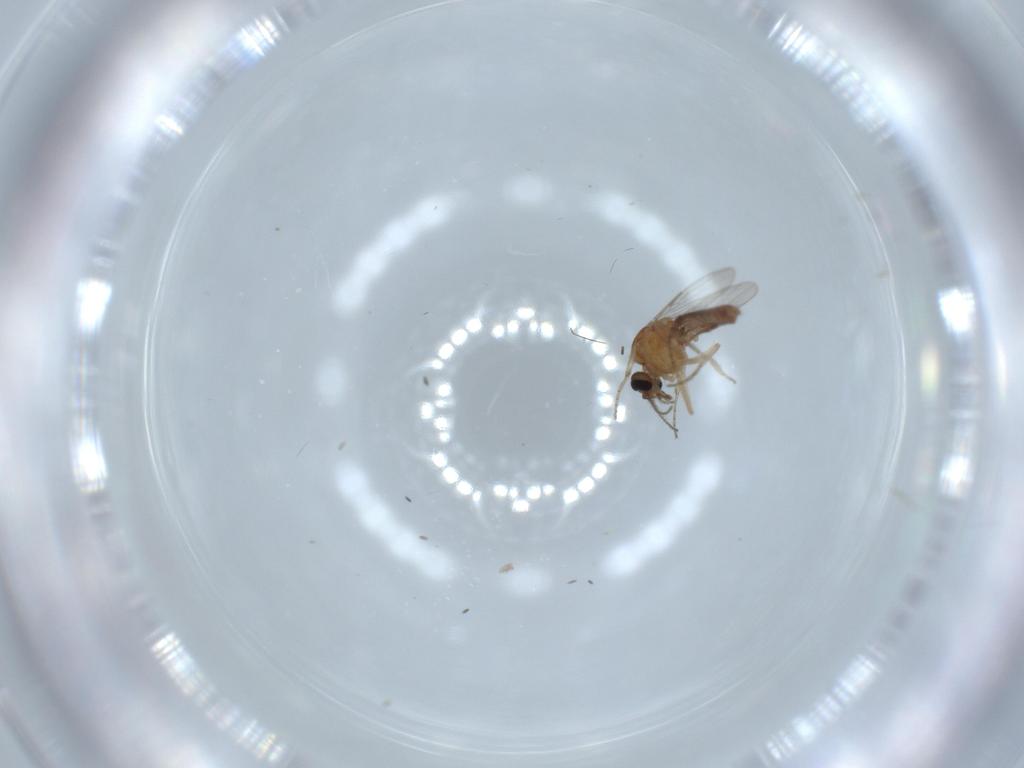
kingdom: Animalia
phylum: Arthropoda
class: Insecta
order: Diptera
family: Ceratopogonidae
